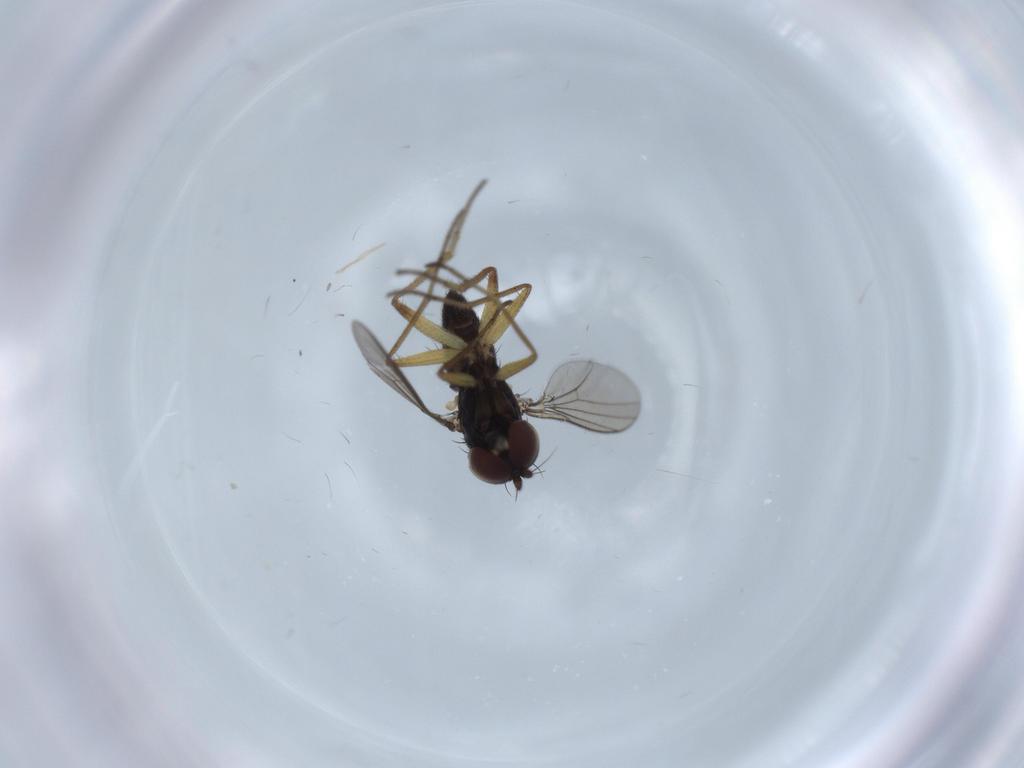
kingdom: Animalia
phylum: Arthropoda
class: Insecta
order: Diptera
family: Dolichopodidae
